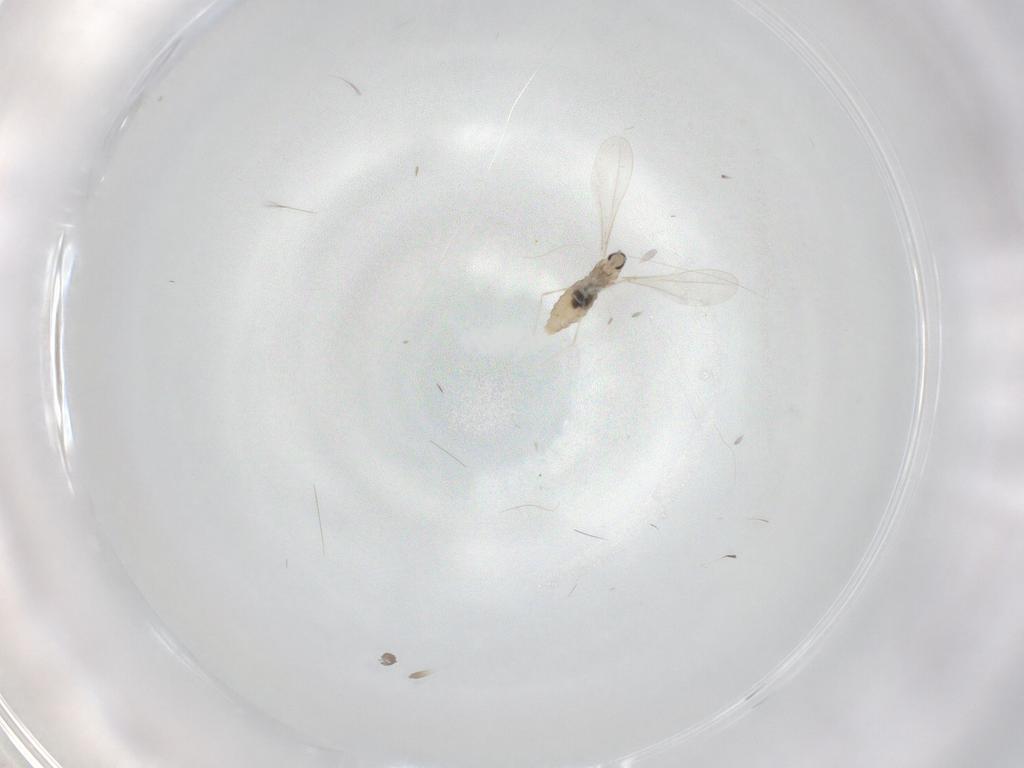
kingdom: Animalia
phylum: Arthropoda
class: Insecta
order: Diptera
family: Cecidomyiidae
